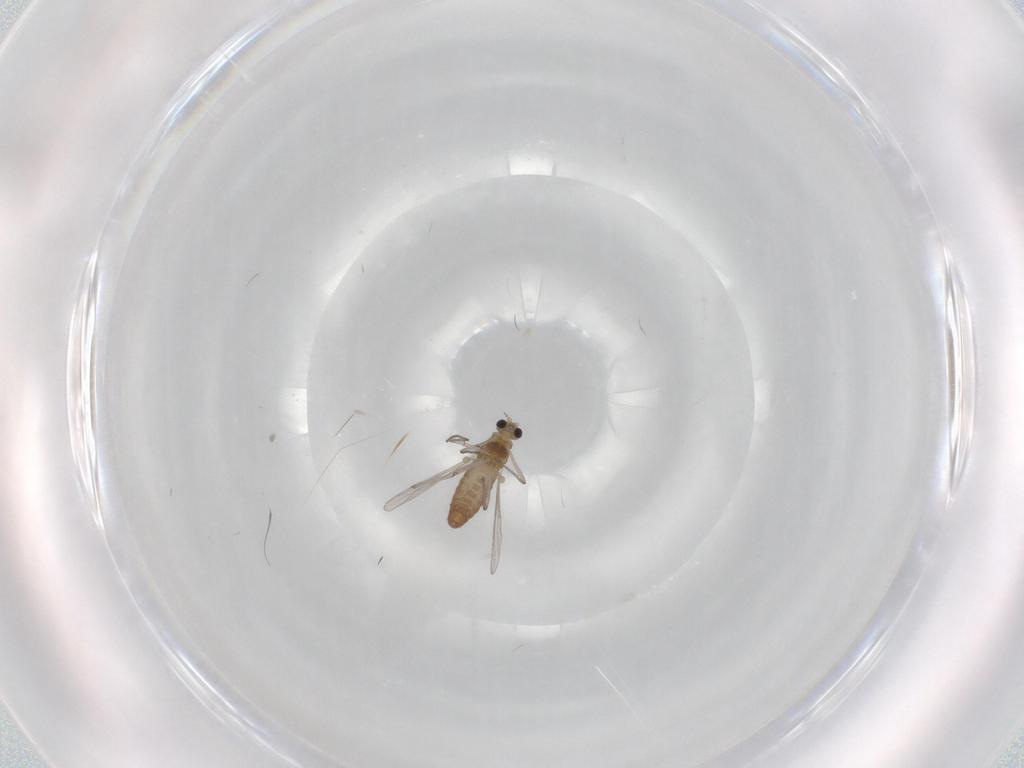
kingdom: Animalia
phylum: Arthropoda
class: Insecta
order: Diptera
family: Chironomidae
